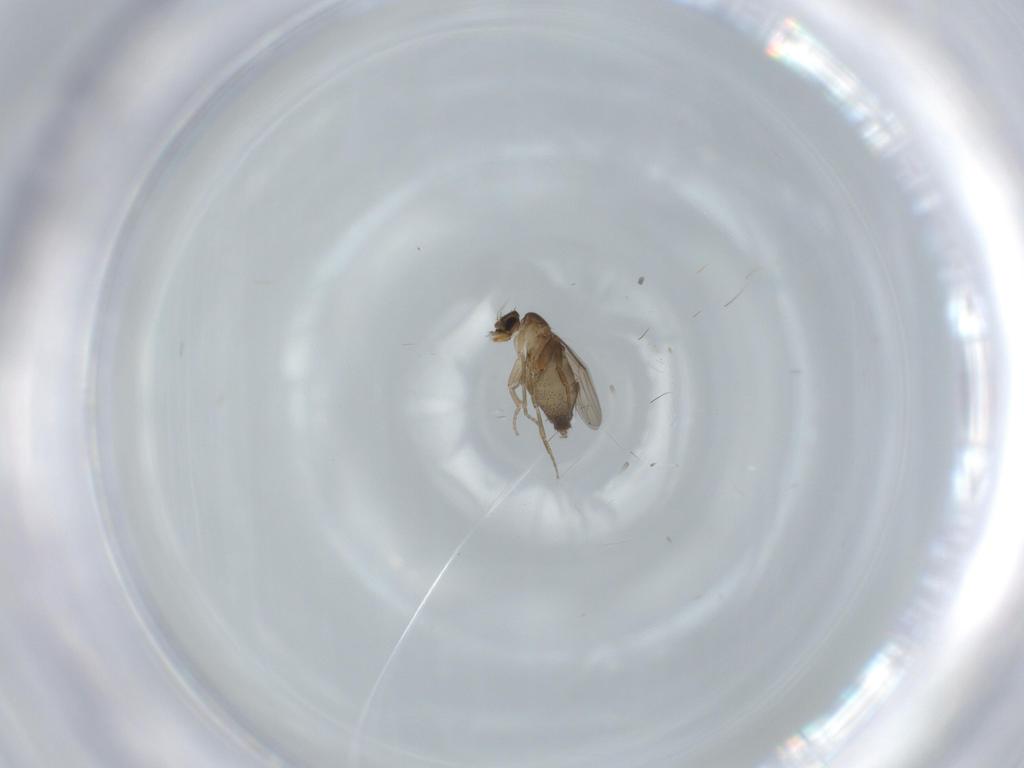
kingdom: Animalia
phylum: Arthropoda
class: Insecta
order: Diptera
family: Phoridae
